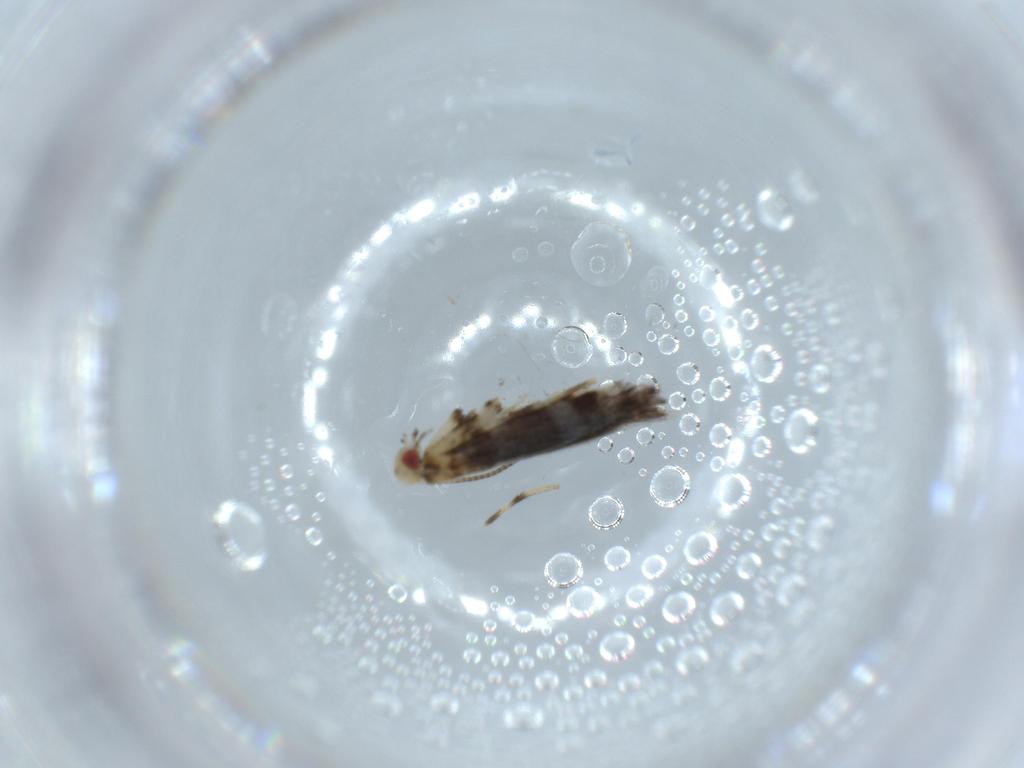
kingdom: Animalia
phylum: Arthropoda
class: Insecta
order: Lepidoptera
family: Gracillariidae
